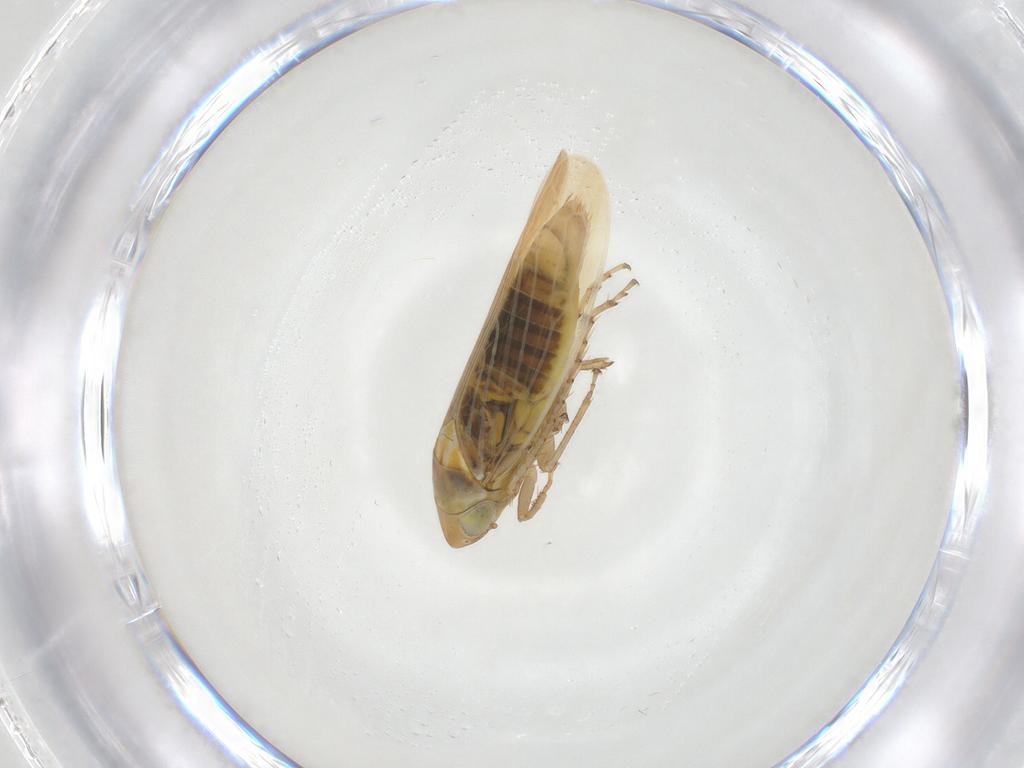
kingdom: Animalia
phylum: Arthropoda
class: Insecta
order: Hemiptera
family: Cicadellidae
